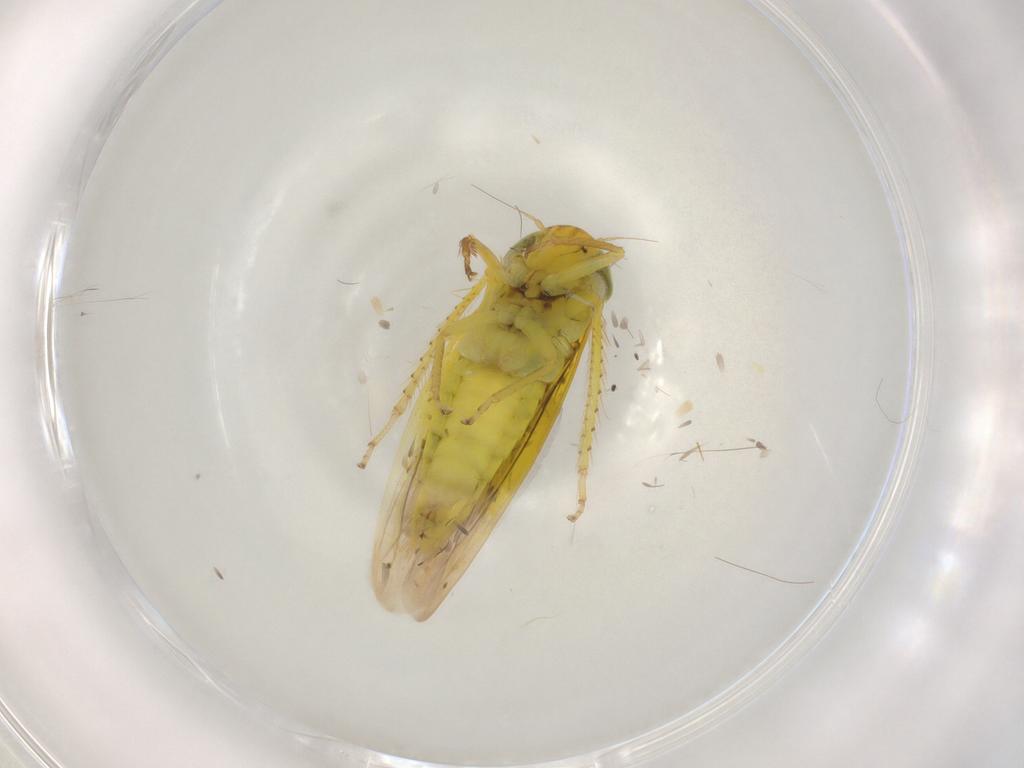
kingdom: Animalia
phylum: Arthropoda
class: Insecta
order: Hemiptera
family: Cicadellidae
